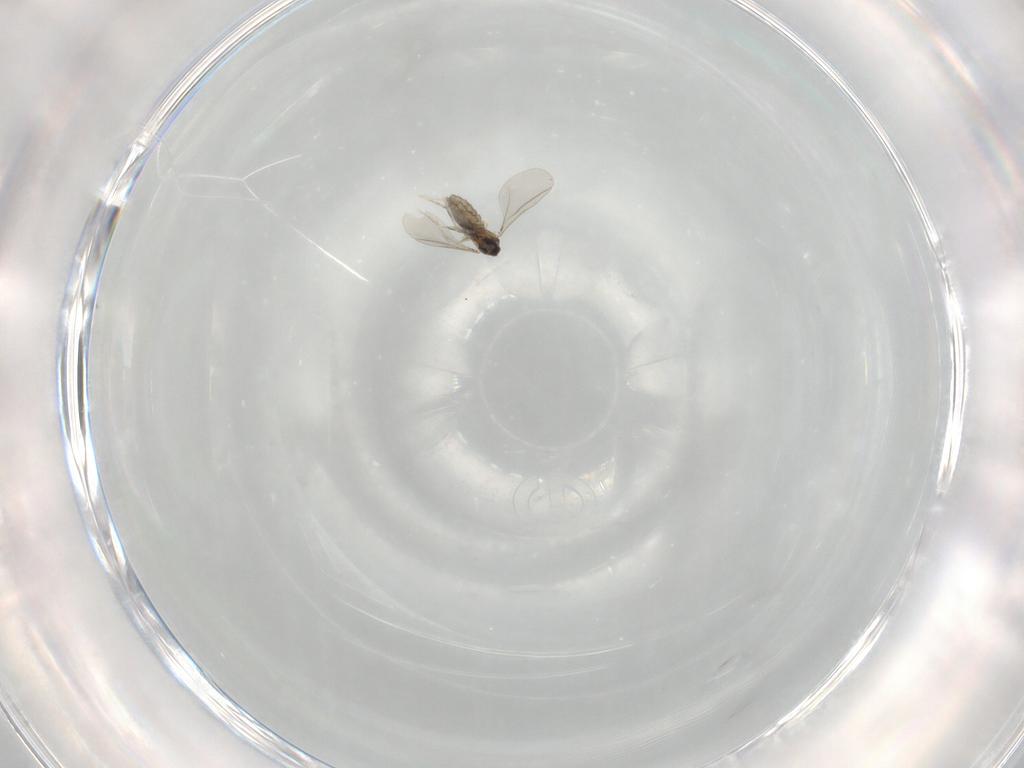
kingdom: Animalia
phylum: Arthropoda
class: Insecta
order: Diptera
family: Cecidomyiidae
